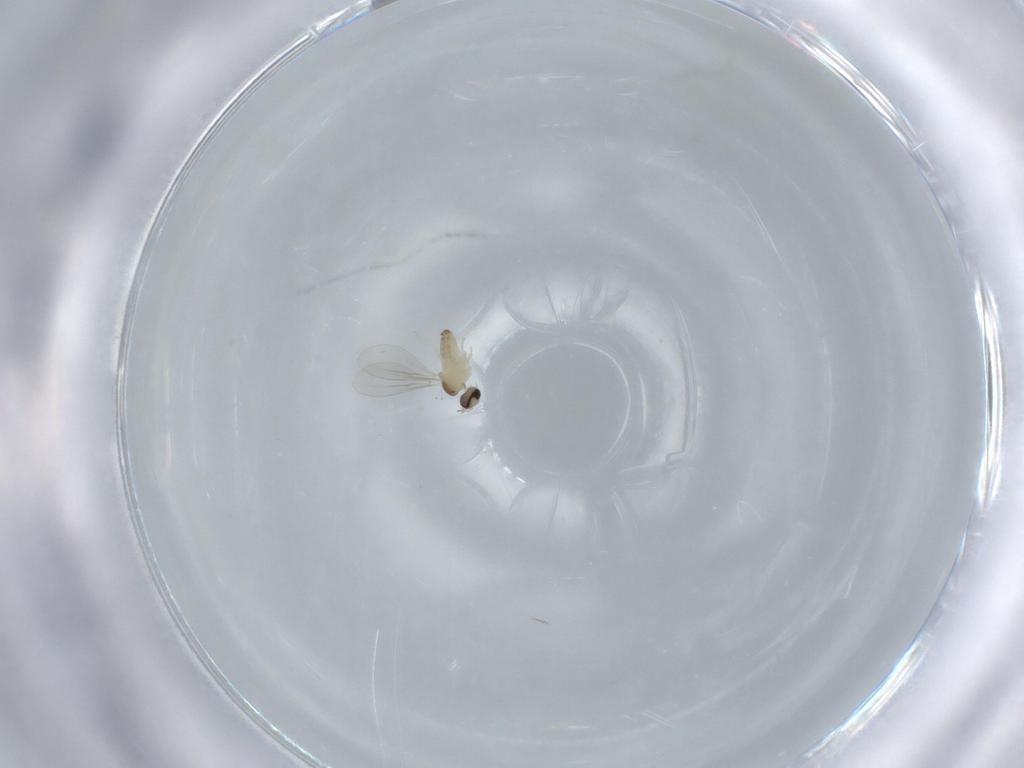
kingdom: Animalia
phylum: Arthropoda
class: Insecta
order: Diptera
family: Cecidomyiidae
